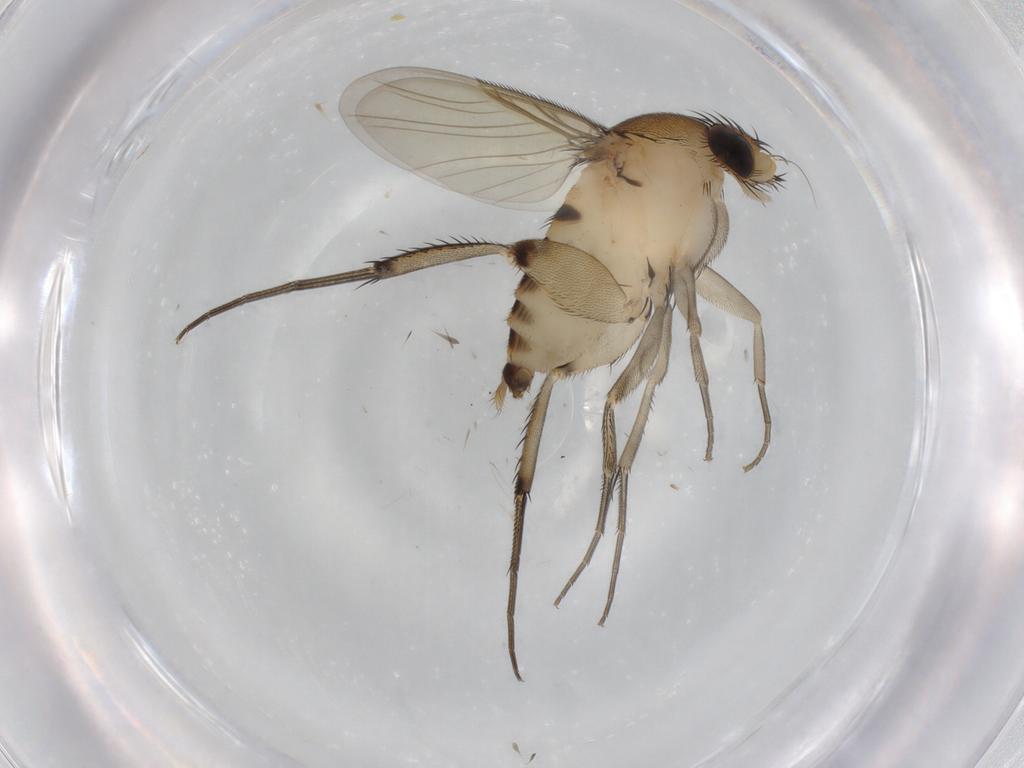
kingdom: Animalia
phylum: Arthropoda
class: Insecta
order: Diptera
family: Phoridae
